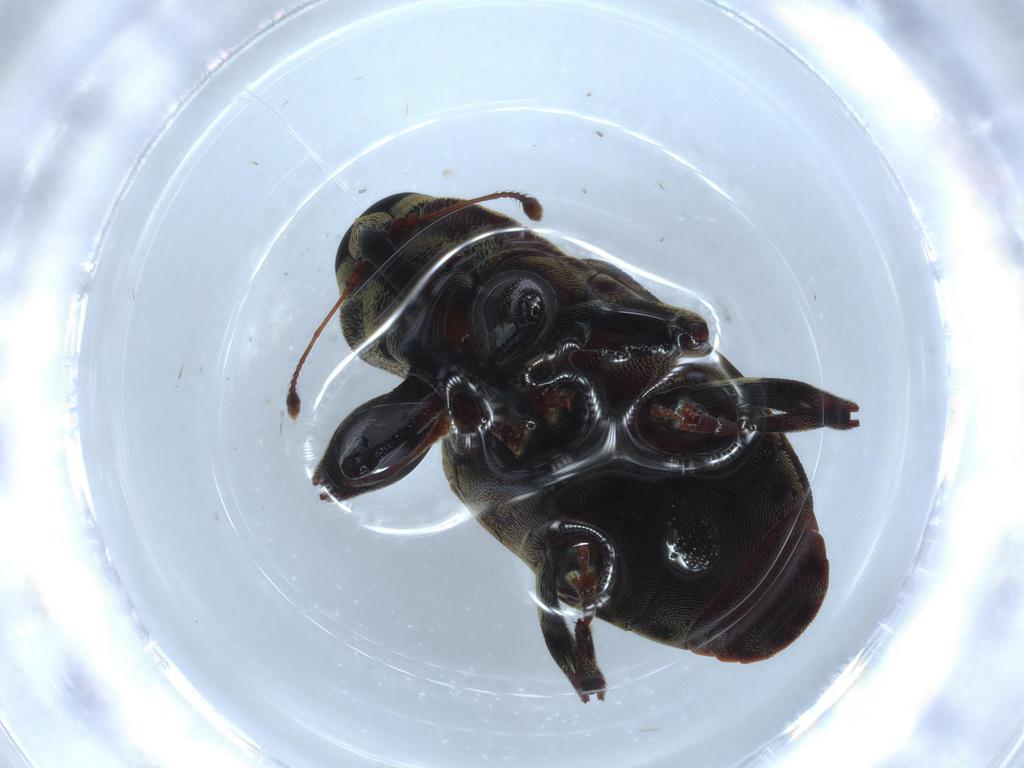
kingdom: Animalia
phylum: Arthropoda
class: Insecta
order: Coleoptera
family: Curculionidae
